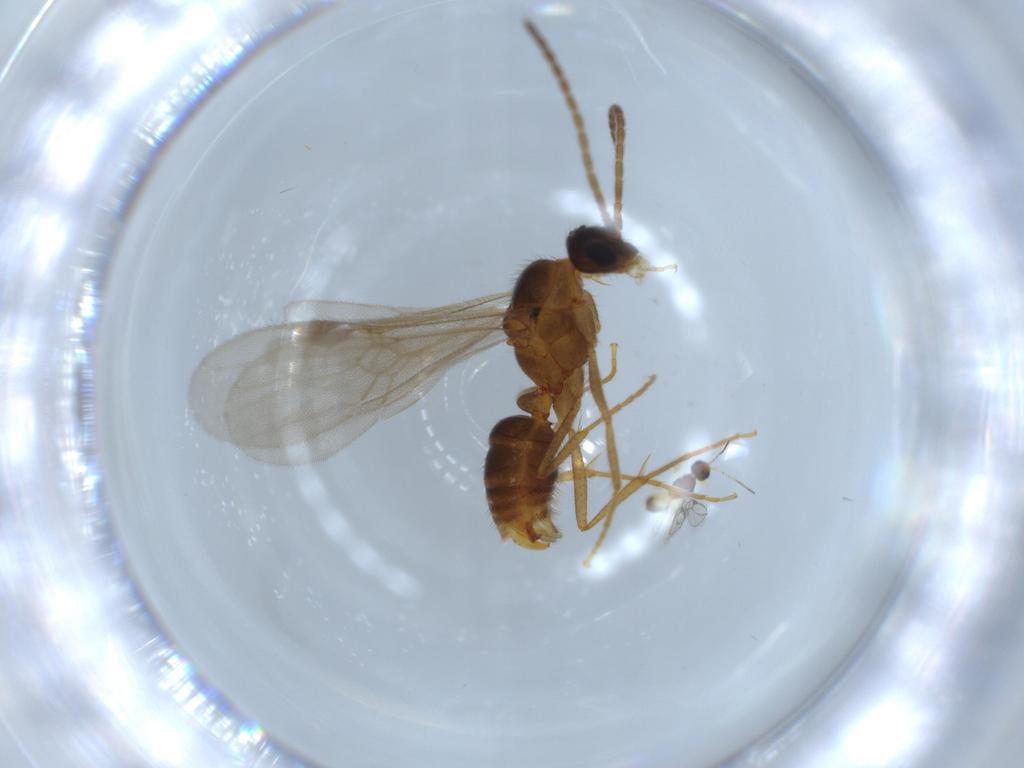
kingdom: Animalia
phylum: Arthropoda
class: Insecta
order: Hymenoptera
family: Formicidae
